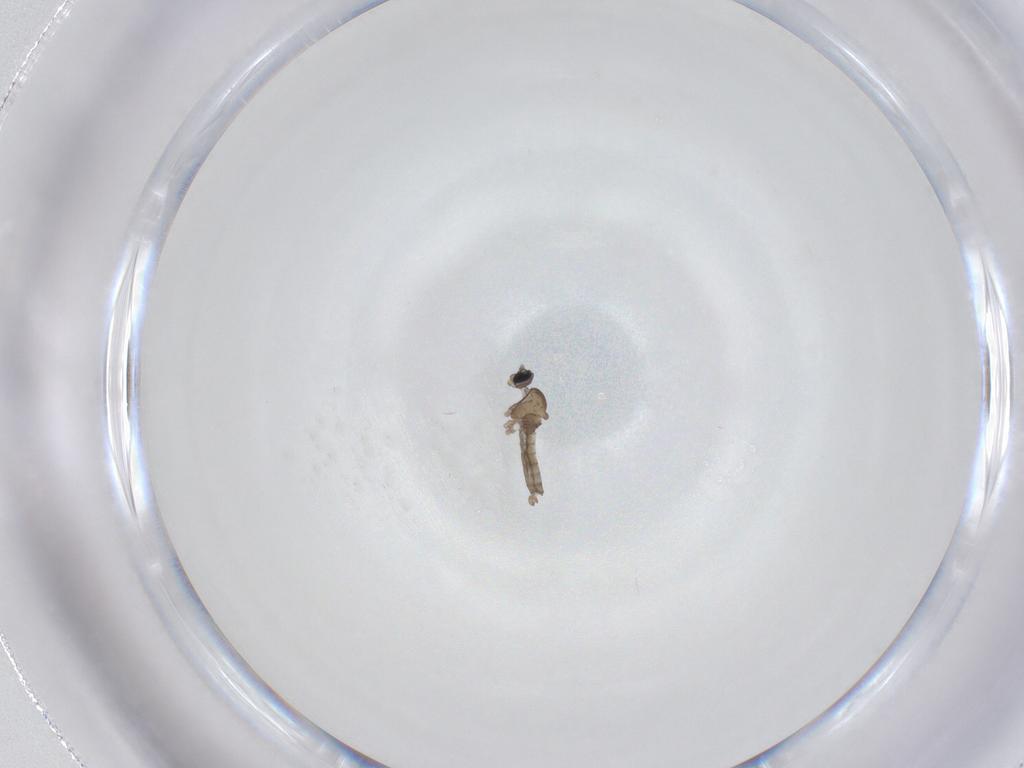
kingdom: Animalia
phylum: Arthropoda
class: Insecta
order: Diptera
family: Cecidomyiidae
